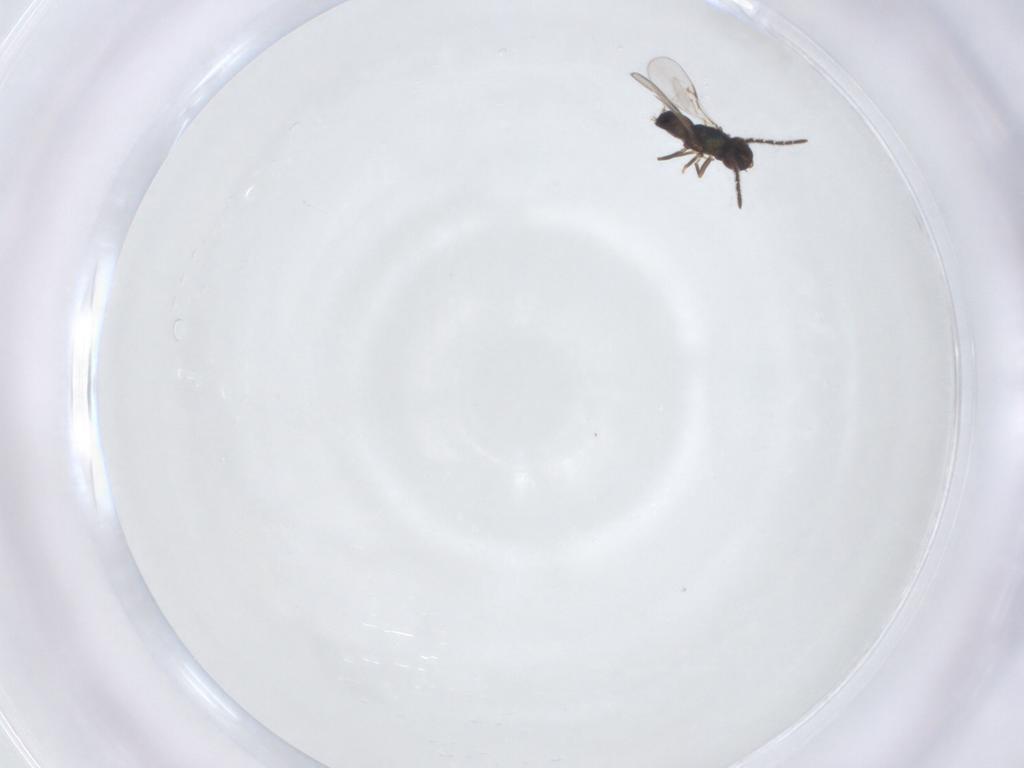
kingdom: Animalia
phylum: Arthropoda
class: Insecta
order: Hymenoptera
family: Encyrtidae
